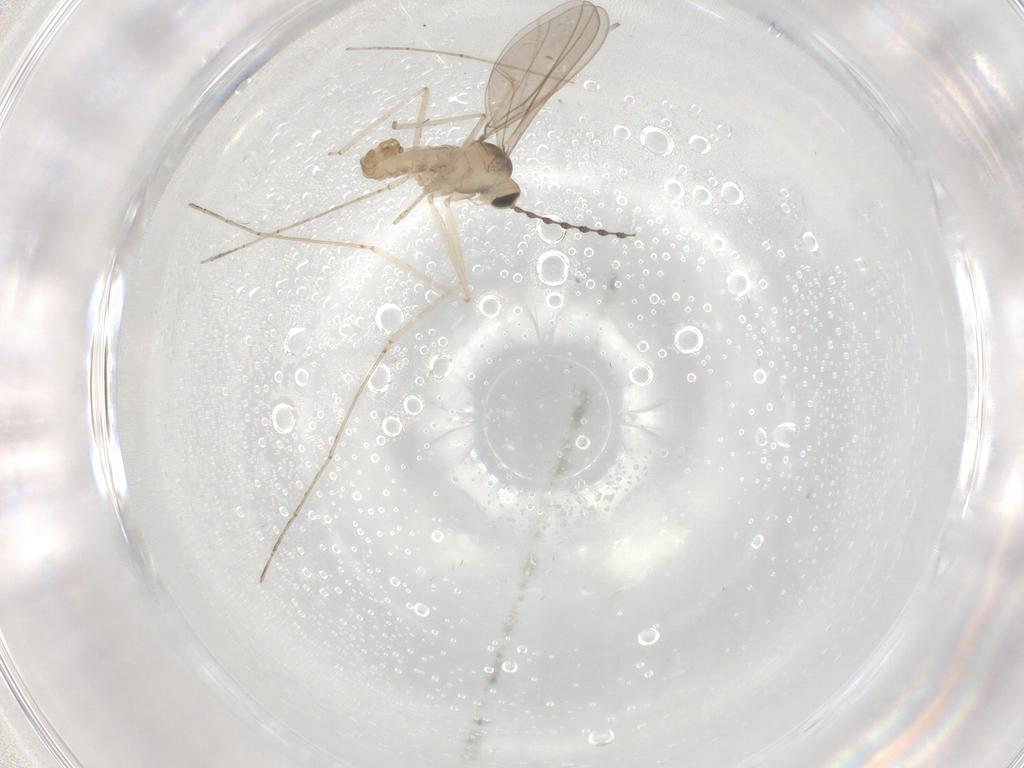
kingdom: Animalia
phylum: Arthropoda
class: Insecta
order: Diptera
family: Cecidomyiidae
